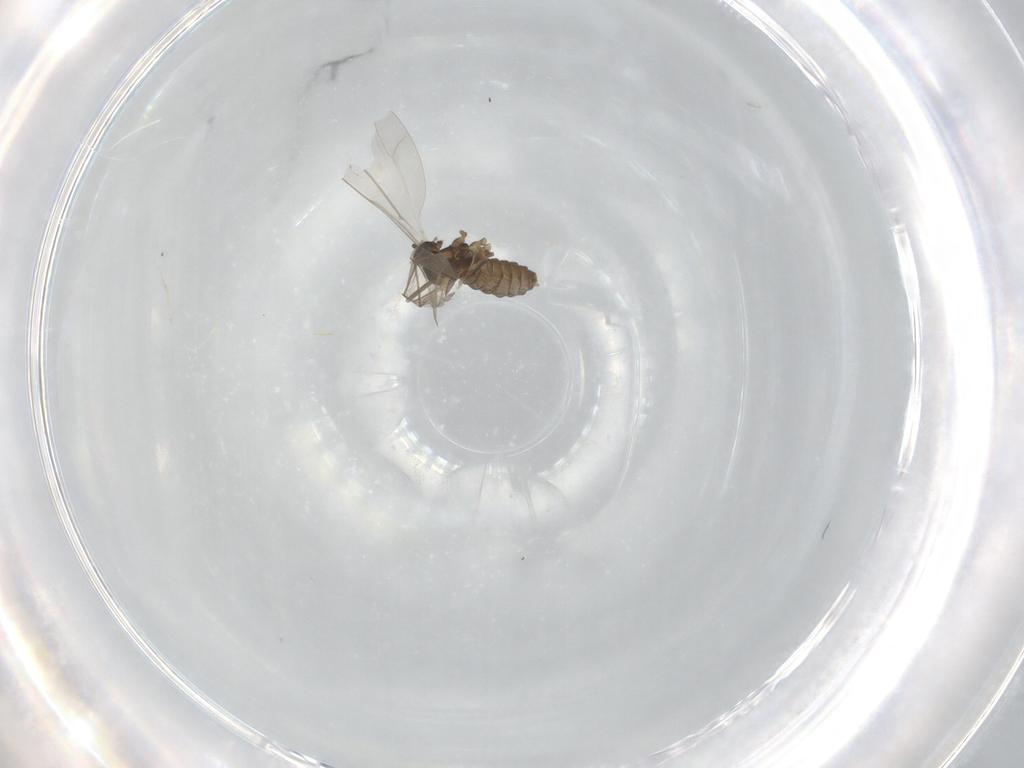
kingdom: Animalia
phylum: Arthropoda
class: Insecta
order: Diptera
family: Cecidomyiidae
